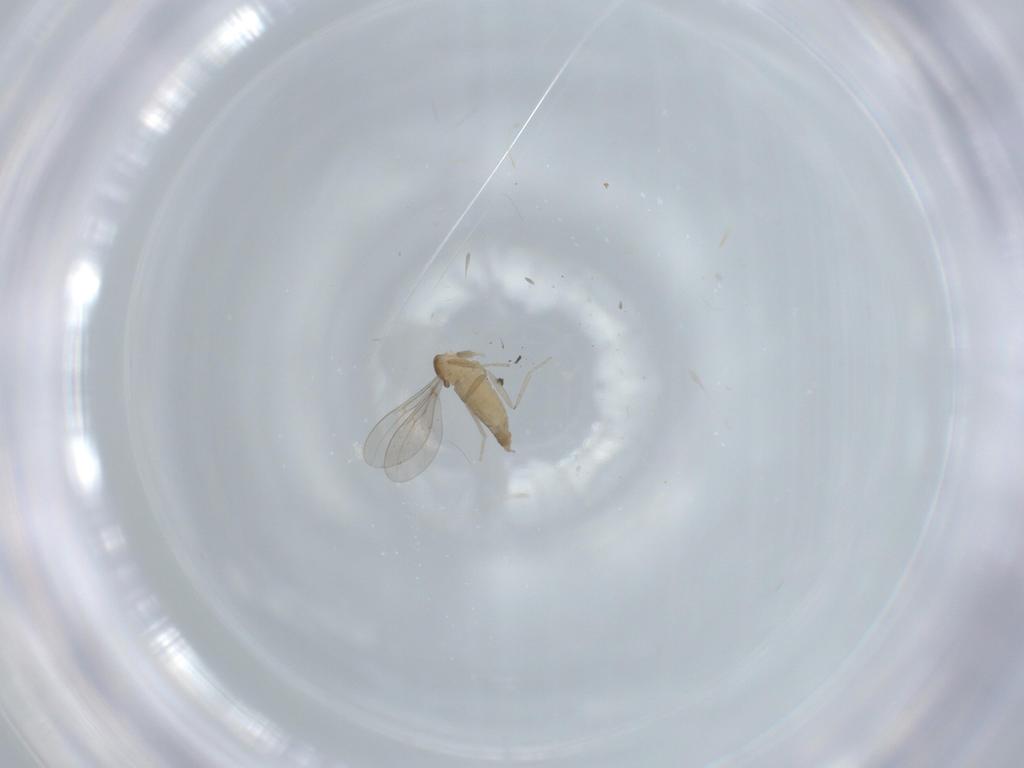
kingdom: Animalia
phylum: Arthropoda
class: Insecta
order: Diptera
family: Cecidomyiidae
